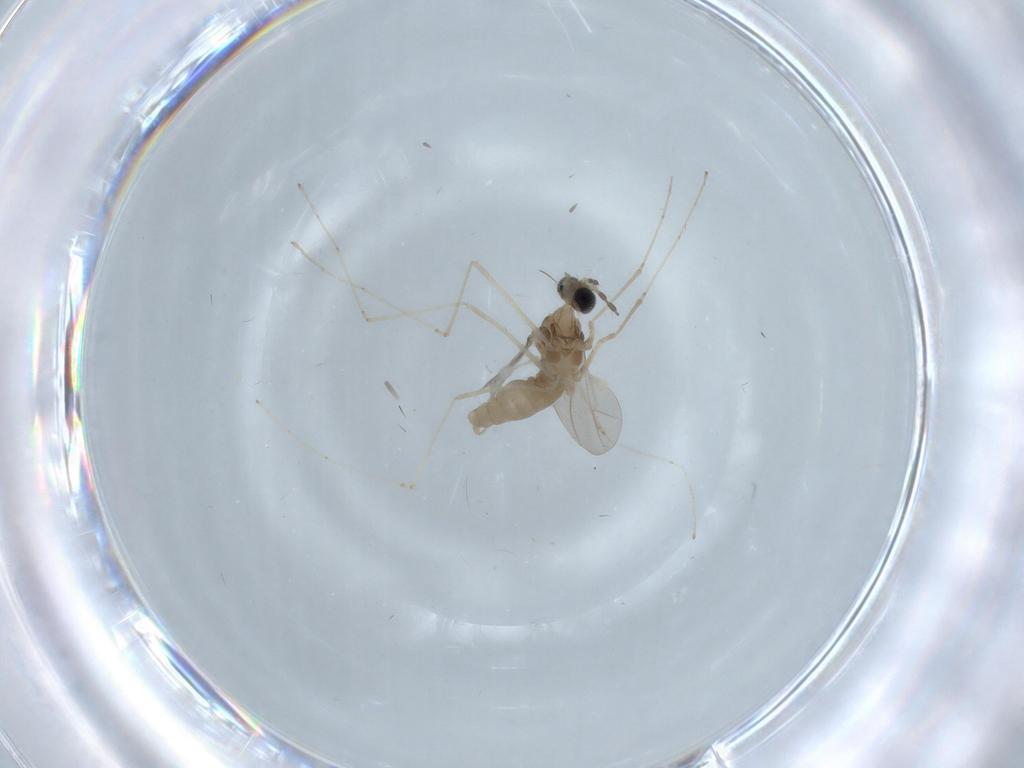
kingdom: Animalia
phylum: Arthropoda
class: Insecta
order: Diptera
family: Cecidomyiidae
